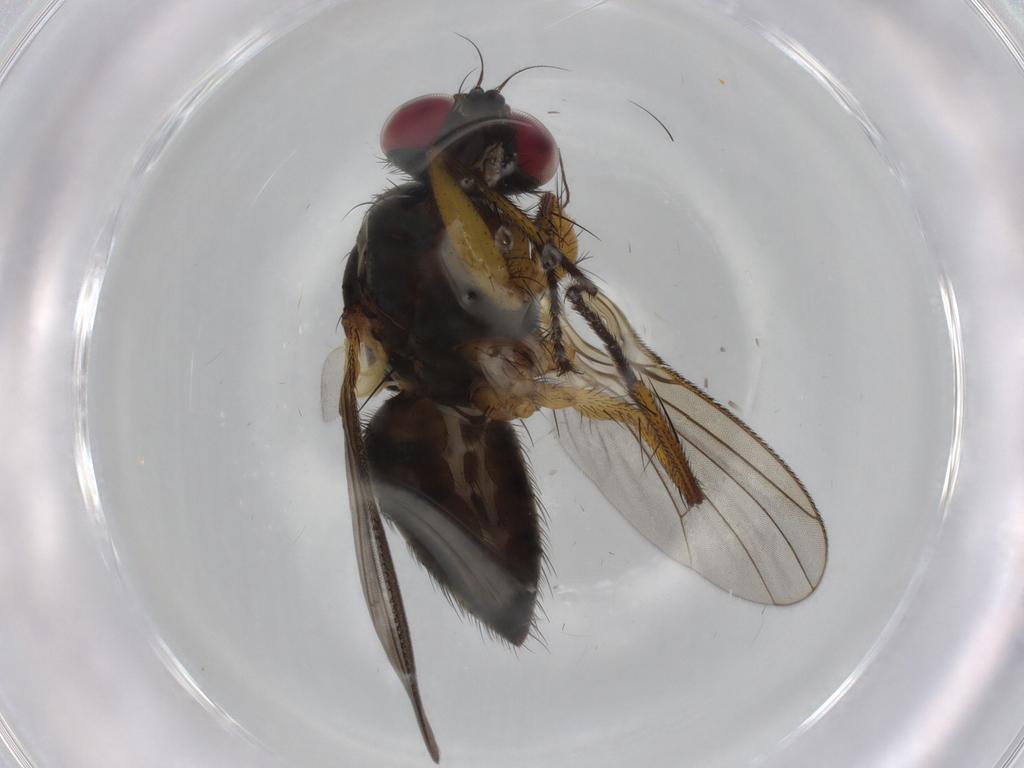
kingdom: Animalia
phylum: Arthropoda
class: Insecta
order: Diptera
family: Muscidae
